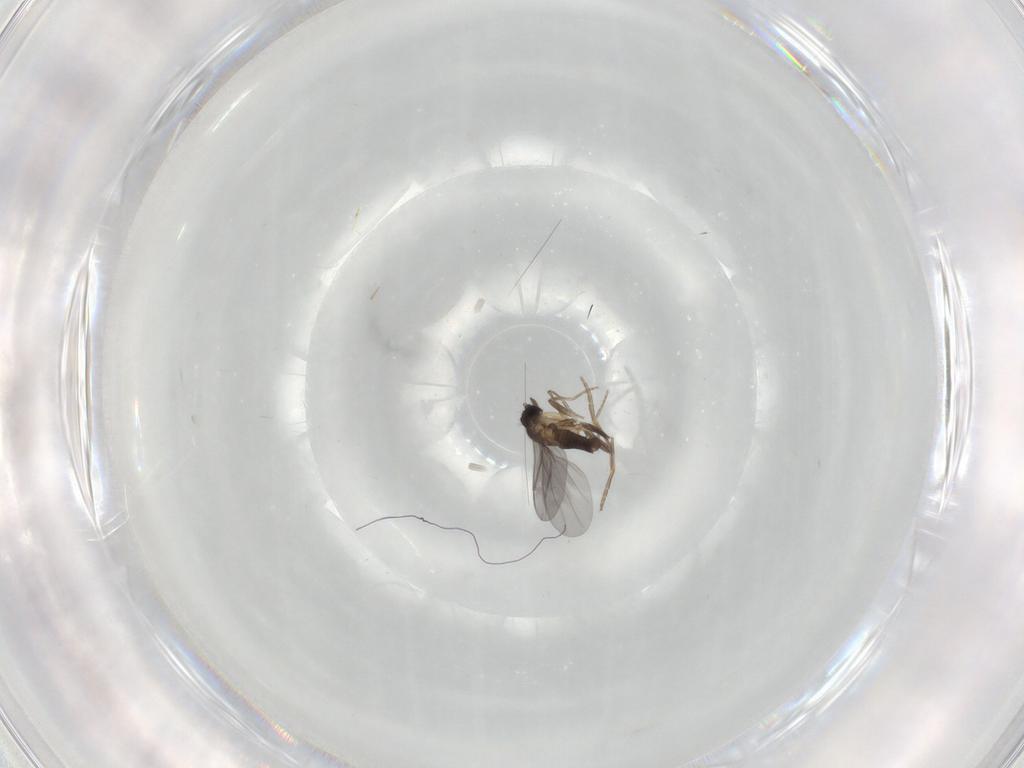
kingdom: Animalia
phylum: Arthropoda
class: Insecta
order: Diptera
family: Phoridae
